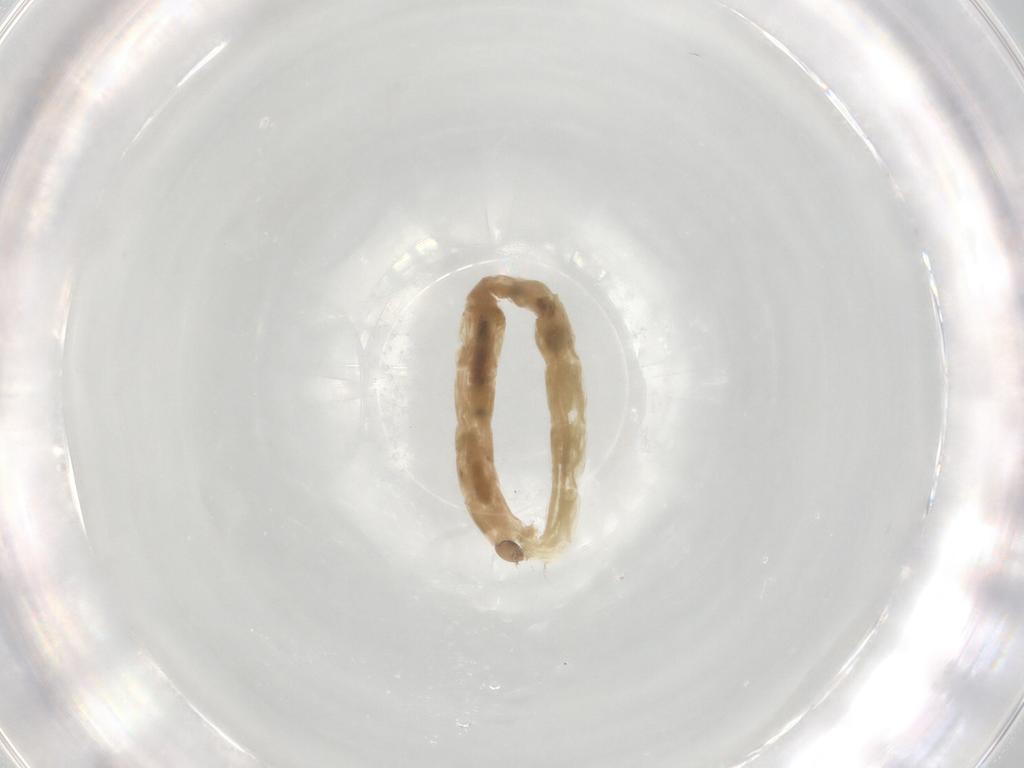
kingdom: Animalia
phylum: Arthropoda
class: Insecta
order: Diptera
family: Chironomidae
